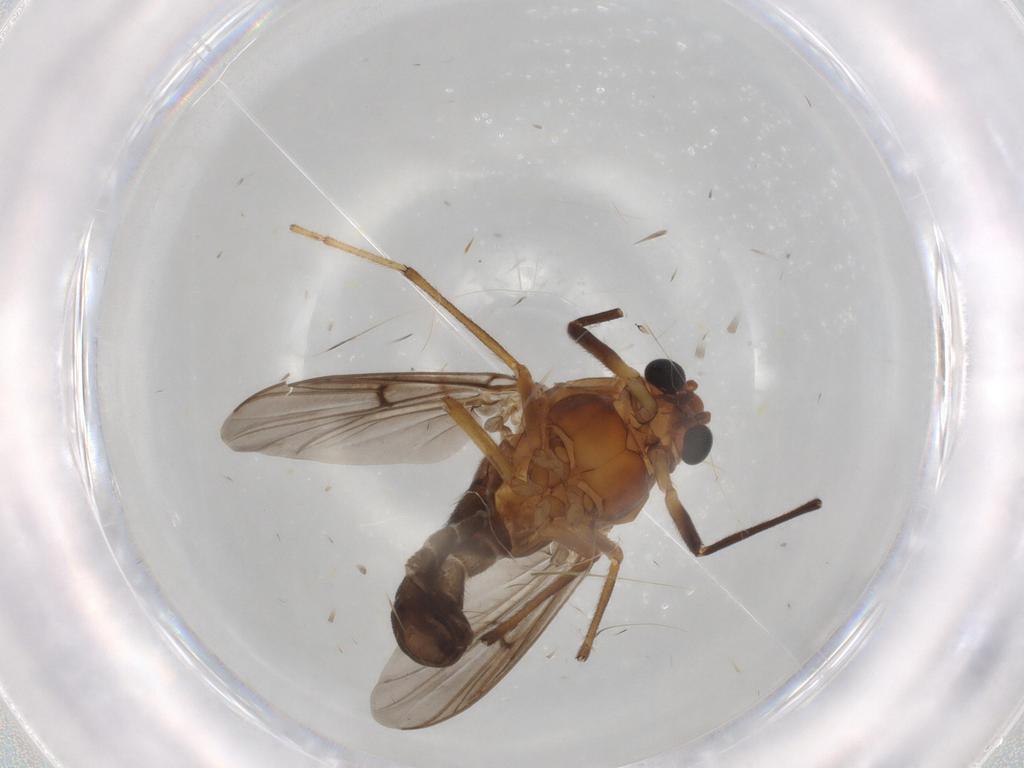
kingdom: Animalia
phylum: Arthropoda
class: Insecta
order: Diptera
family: Chironomidae
